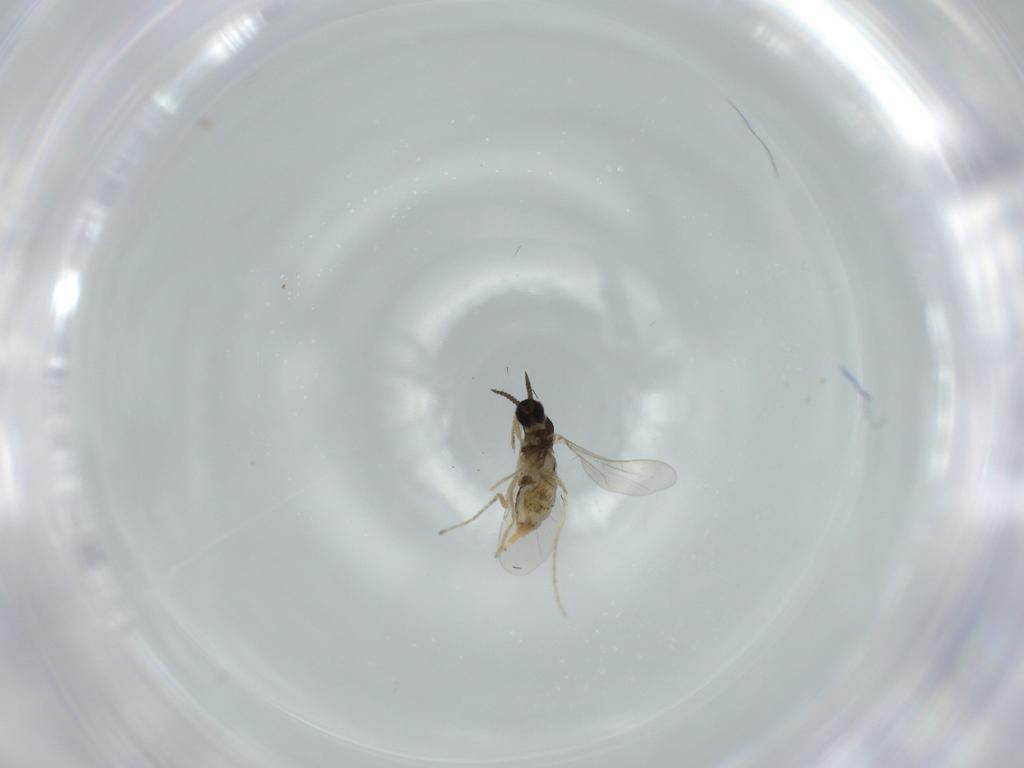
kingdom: Animalia
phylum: Arthropoda
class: Insecta
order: Diptera
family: Cecidomyiidae
